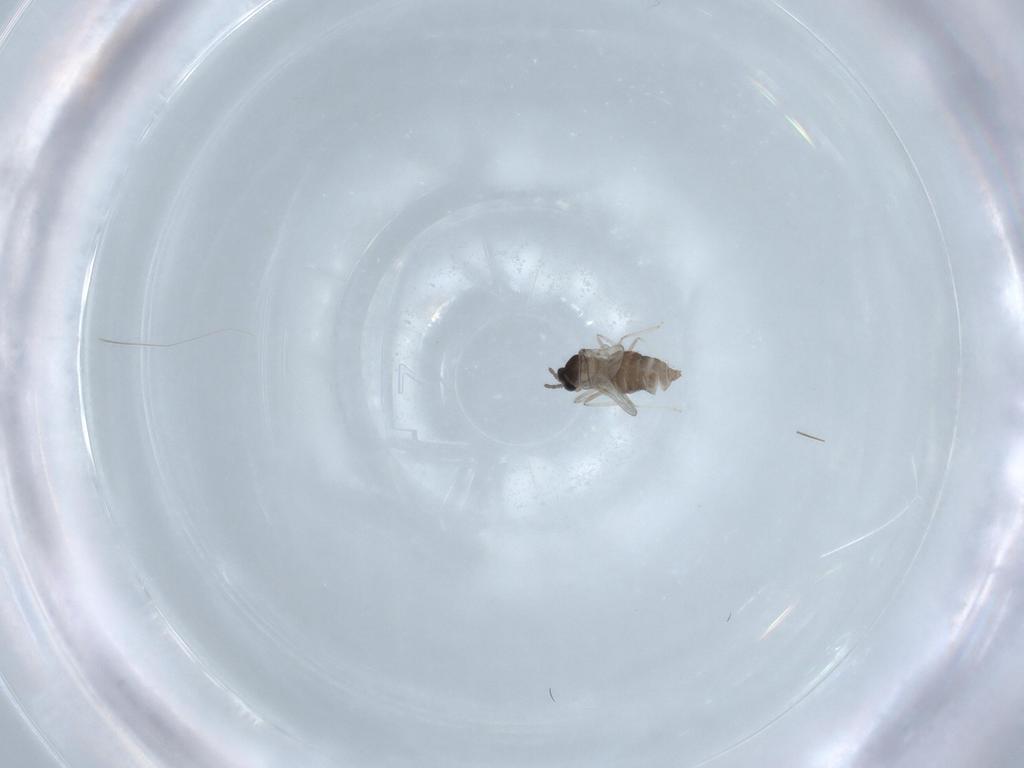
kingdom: Animalia
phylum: Arthropoda
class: Insecta
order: Diptera
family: Cecidomyiidae
